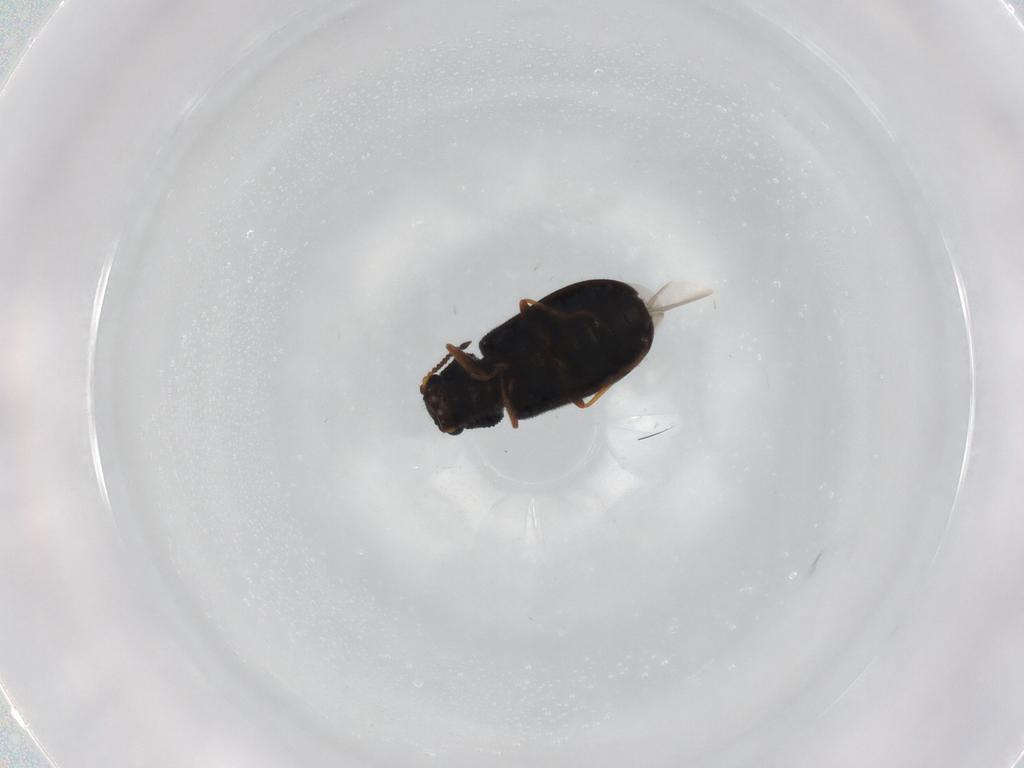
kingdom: Animalia
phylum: Arthropoda
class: Insecta
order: Coleoptera
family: Melyridae
